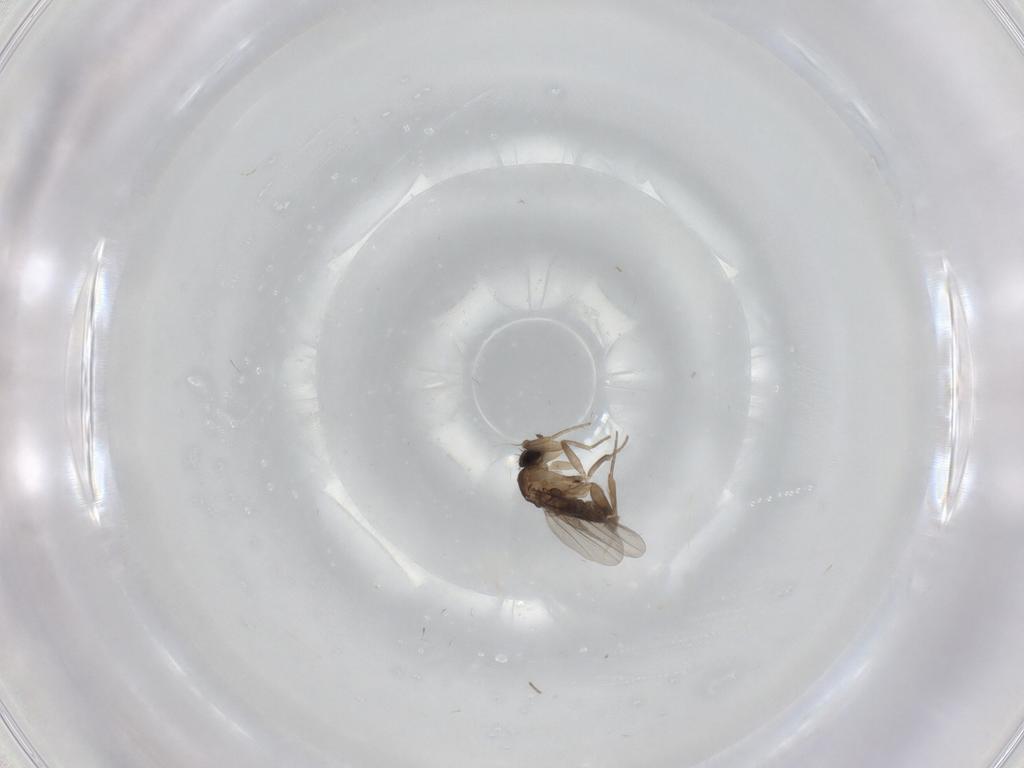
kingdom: Animalia
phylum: Arthropoda
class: Insecta
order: Diptera
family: Phoridae
